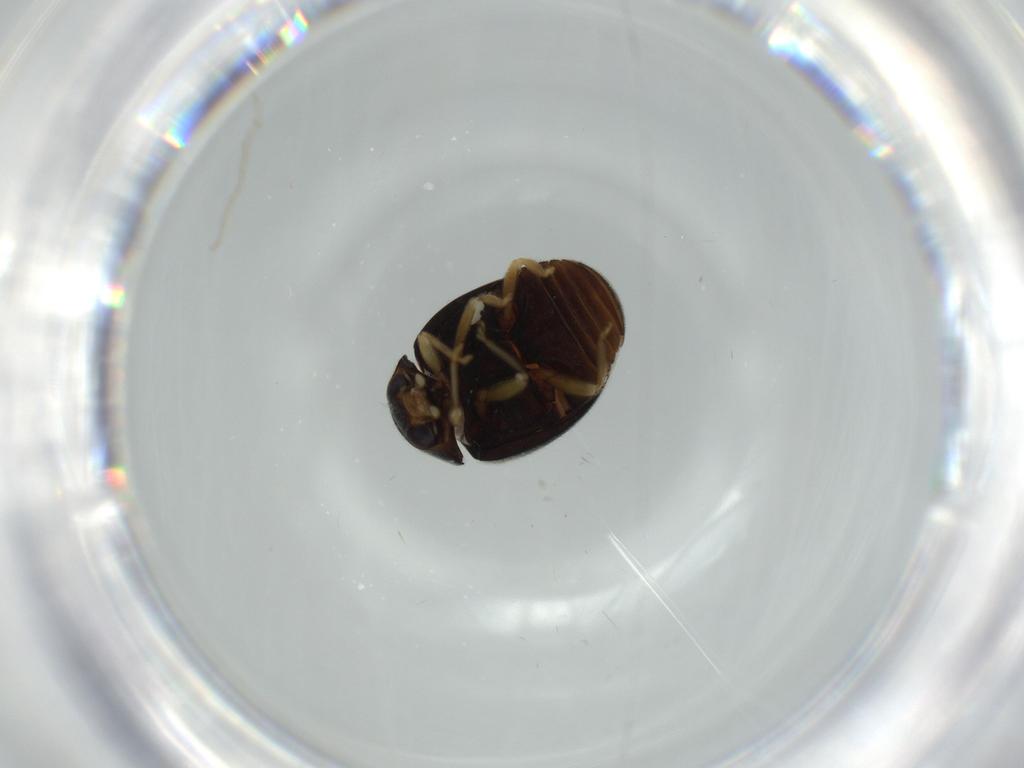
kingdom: Animalia
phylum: Arthropoda
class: Insecta
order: Coleoptera
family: Coccinellidae
